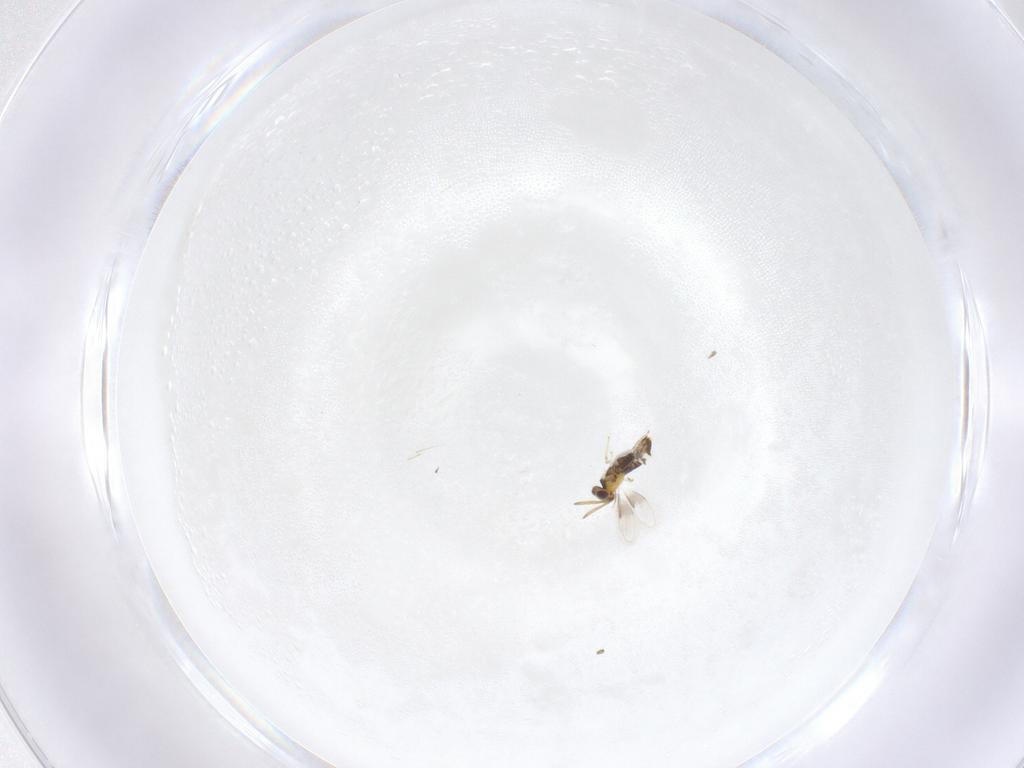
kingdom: Animalia
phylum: Arthropoda
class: Insecta
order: Hymenoptera
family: Aphelinidae
